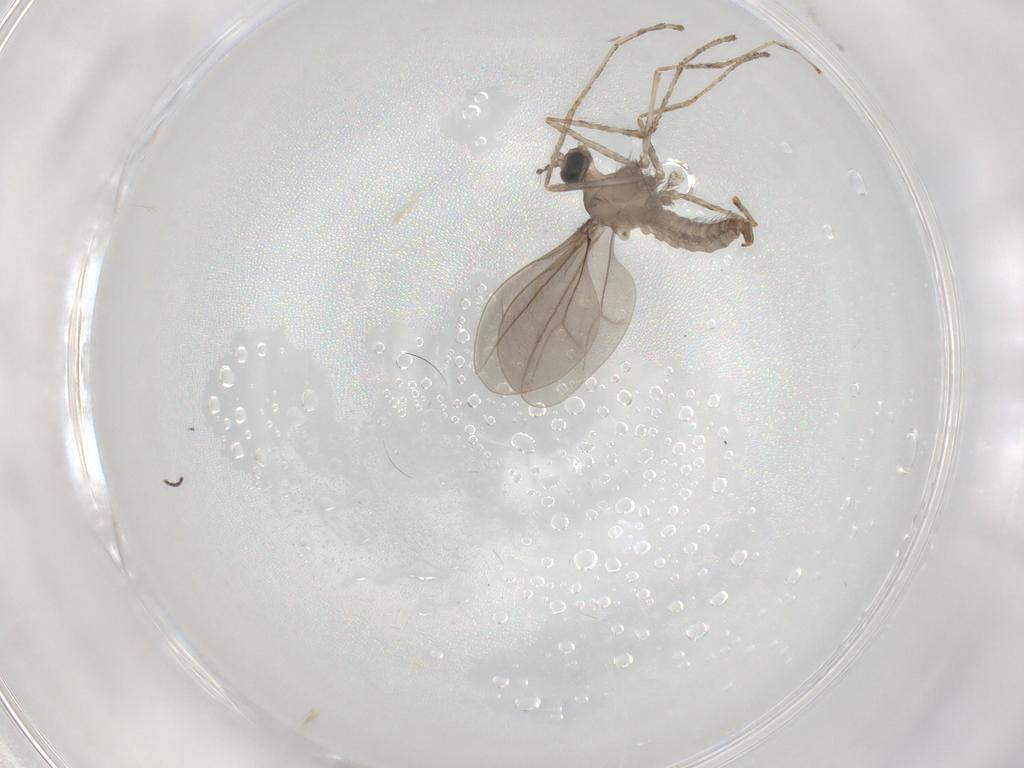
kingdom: Animalia
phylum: Arthropoda
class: Insecta
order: Diptera
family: Cecidomyiidae
